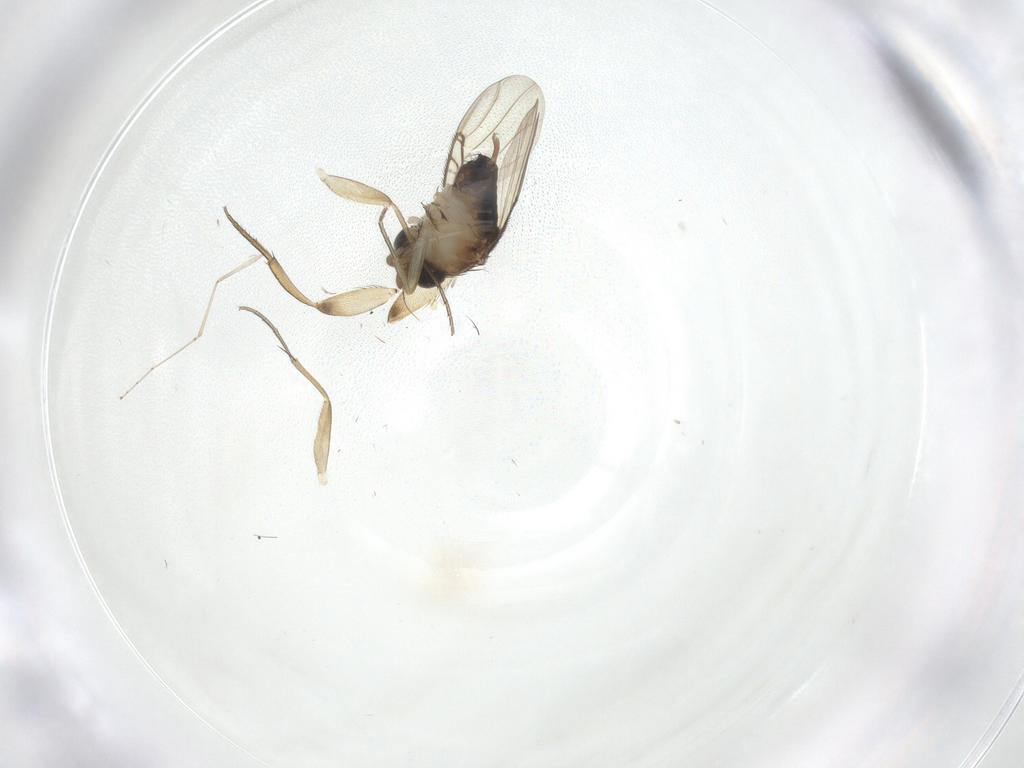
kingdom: Animalia
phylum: Arthropoda
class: Insecta
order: Diptera
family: Phoridae
